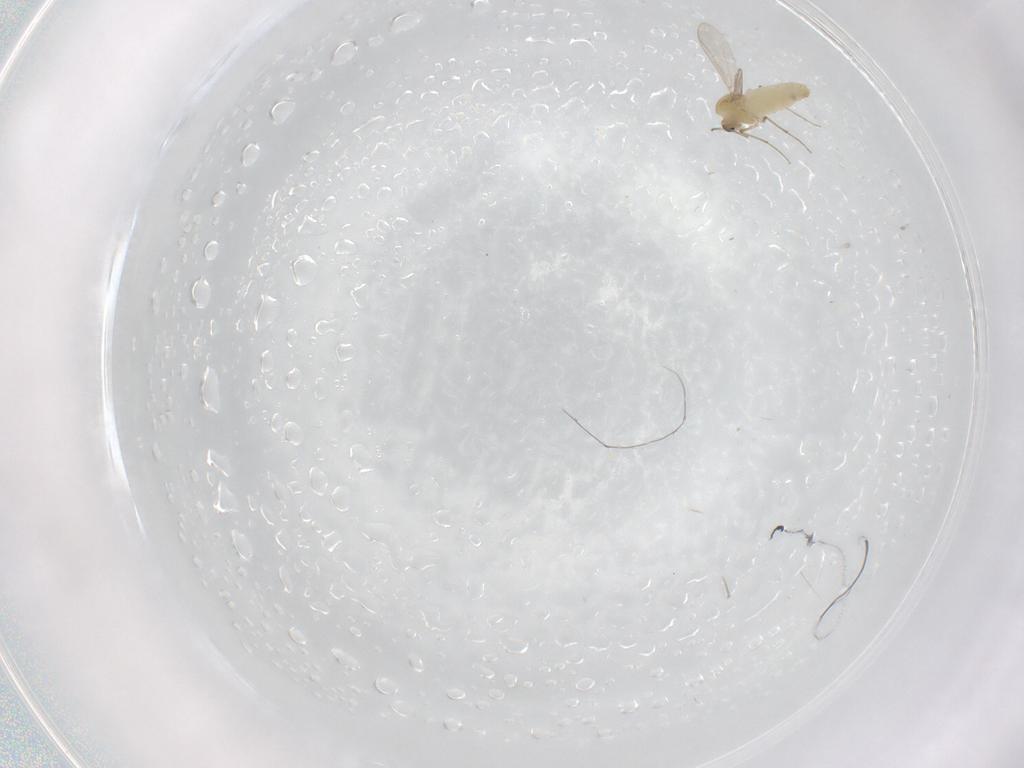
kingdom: Animalia
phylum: Arthropoda
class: Insecta
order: Diptera
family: Chironomidae
